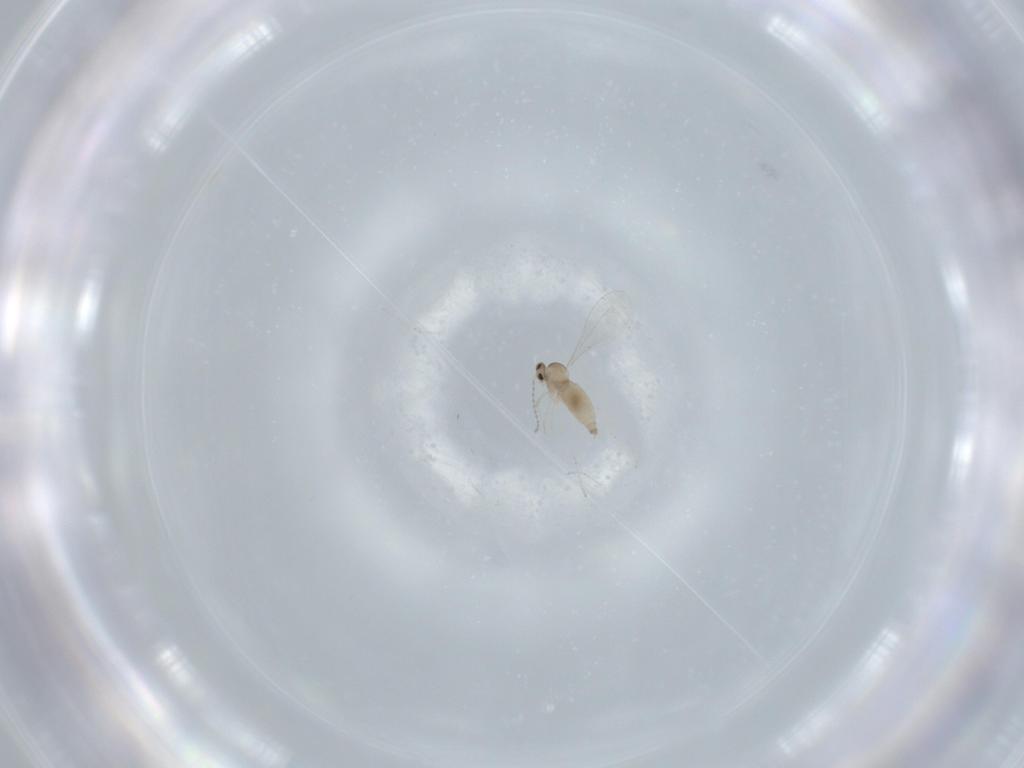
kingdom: Animalia
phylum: Arthropoda
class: Insecta
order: Diptera
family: Cecidomyiidae
